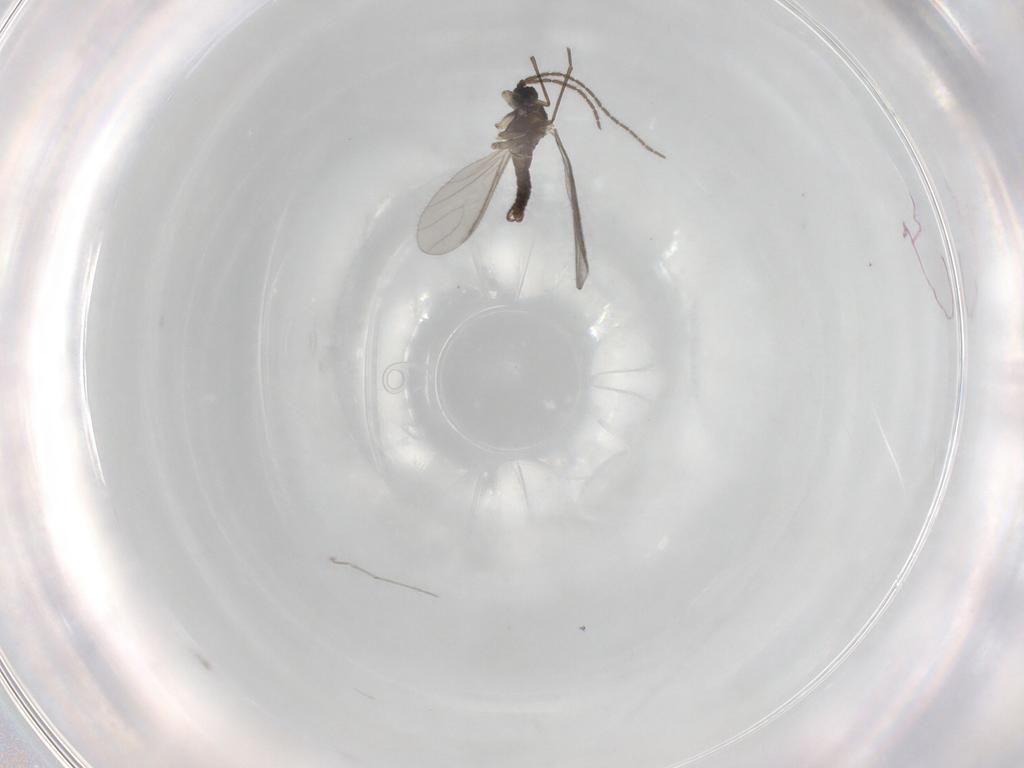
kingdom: Animalia
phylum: Arthropoda
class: Insecta
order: Diptera
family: Sciaridae
